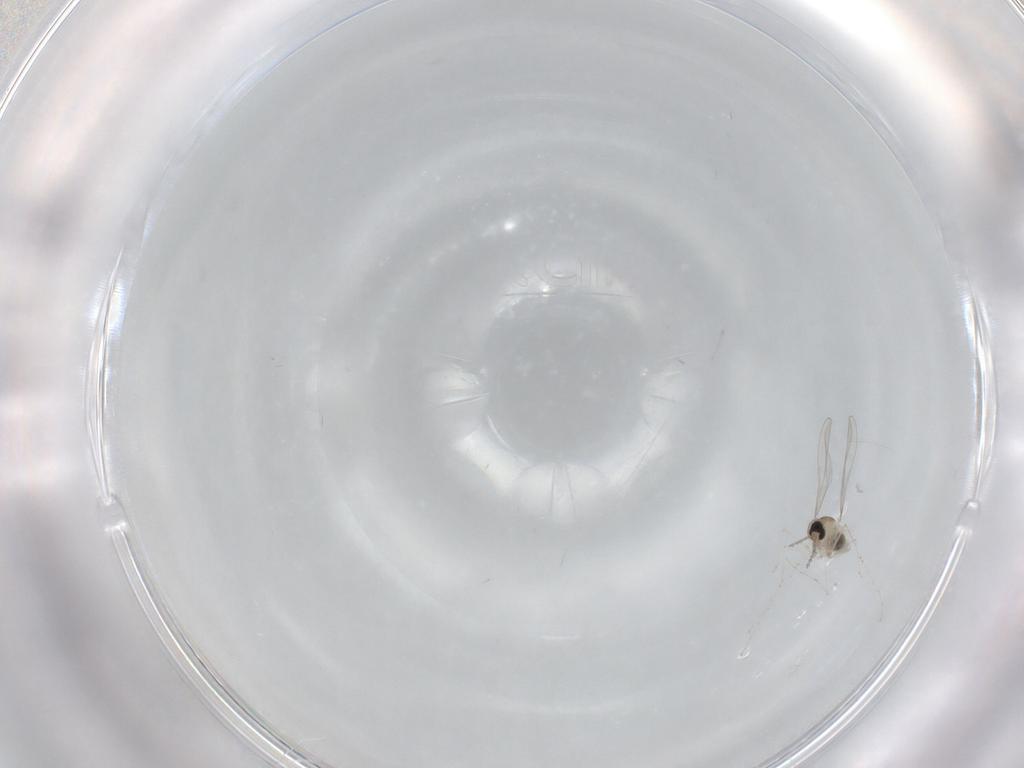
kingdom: Animalia
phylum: Arthropoda
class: Insecta
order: Diptera
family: Cecidomyiidae
